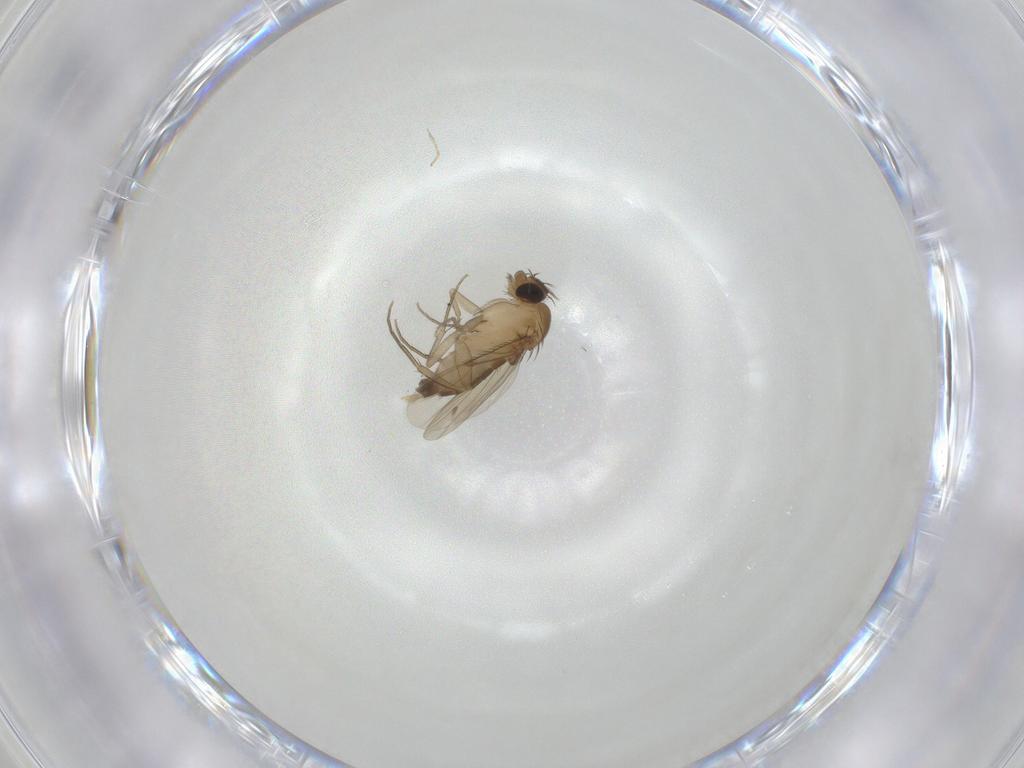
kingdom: Animalia
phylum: Arthropoda
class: Insecta
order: Diptera
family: Phoridae
